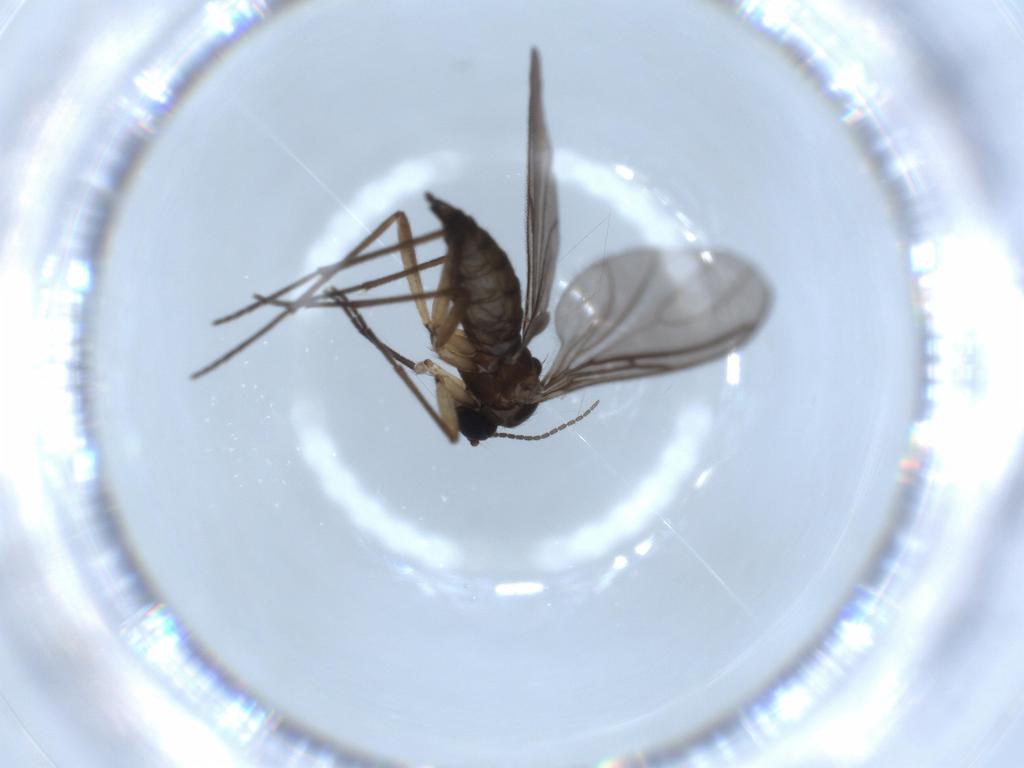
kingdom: Animalia
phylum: Arthropoda
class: Insecta
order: Diptera
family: Sciaridae
